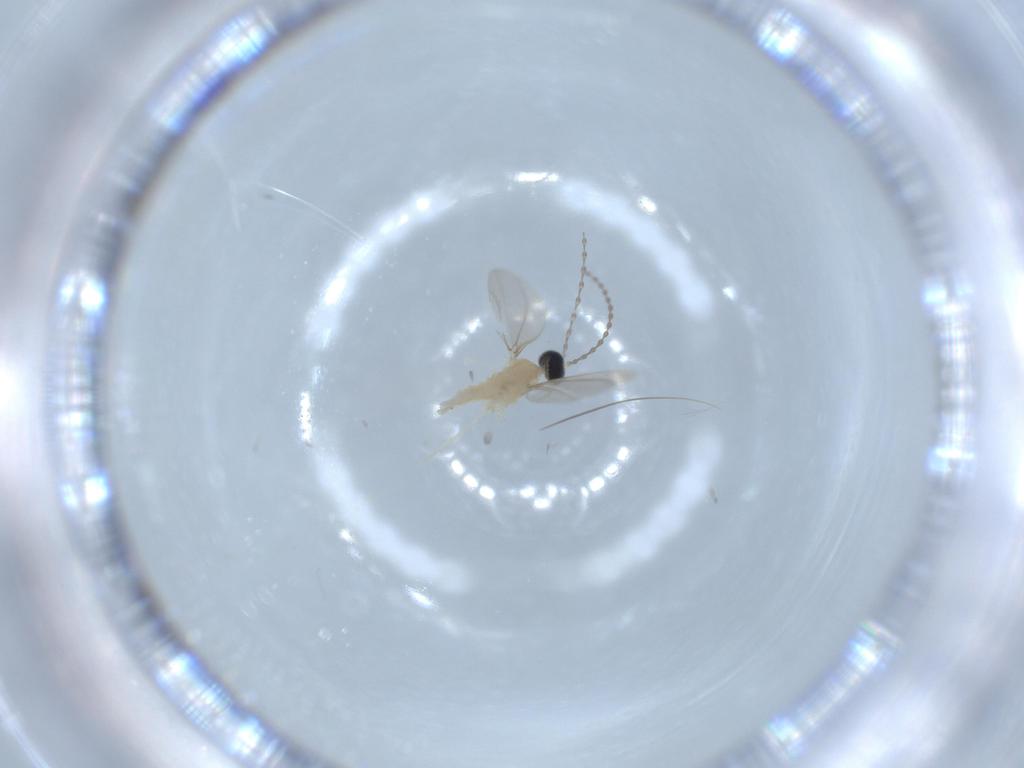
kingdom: Animalia
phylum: Arthropoda
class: Insecta
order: Diptera
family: Cecidomyiidae
